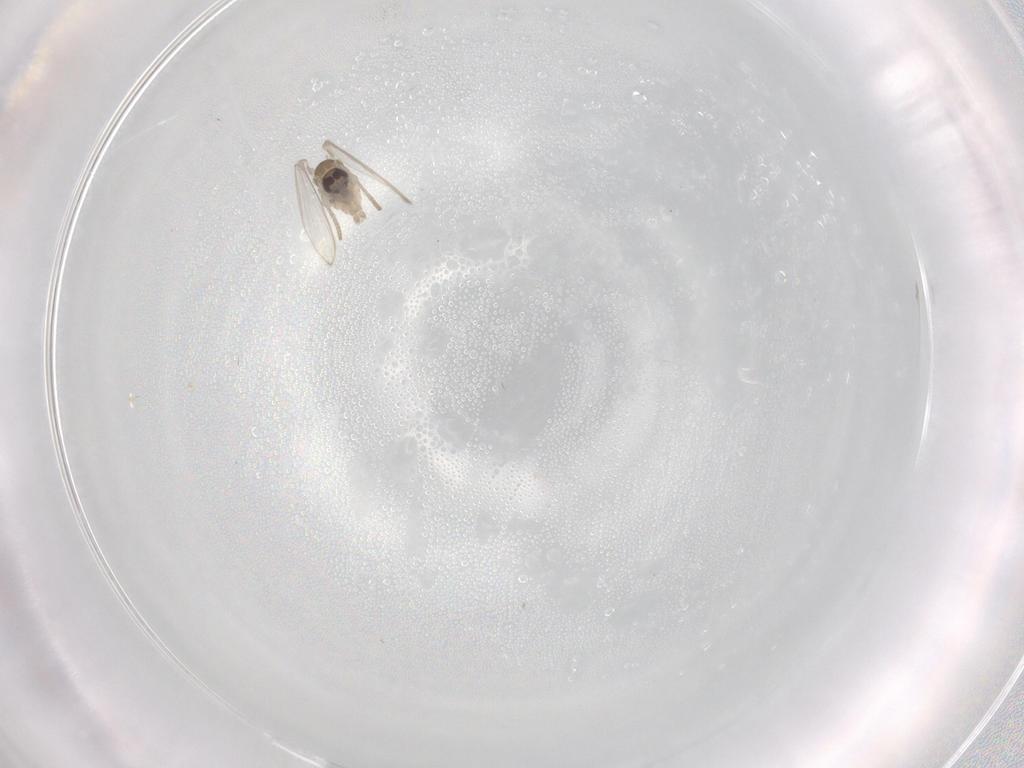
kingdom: Animalia
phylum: Arthropoda
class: Insecta
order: Diptera
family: Psychodidae
